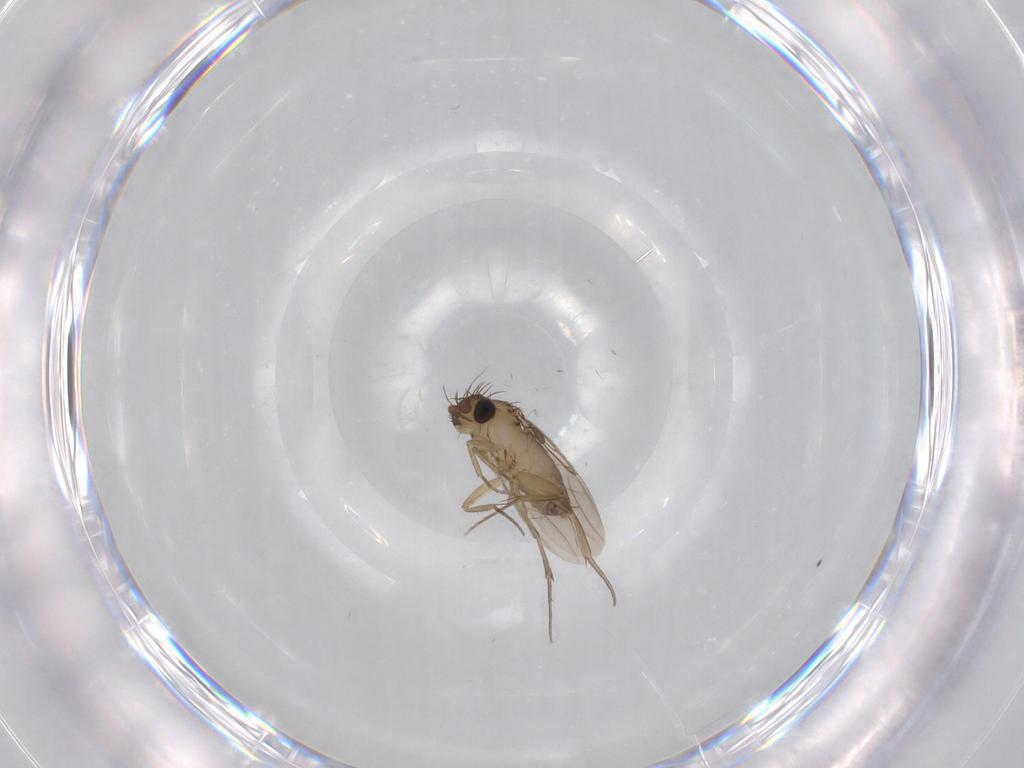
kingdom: Animalia
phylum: Arthropoda
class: Insecta
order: Diptera
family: Phoridae
